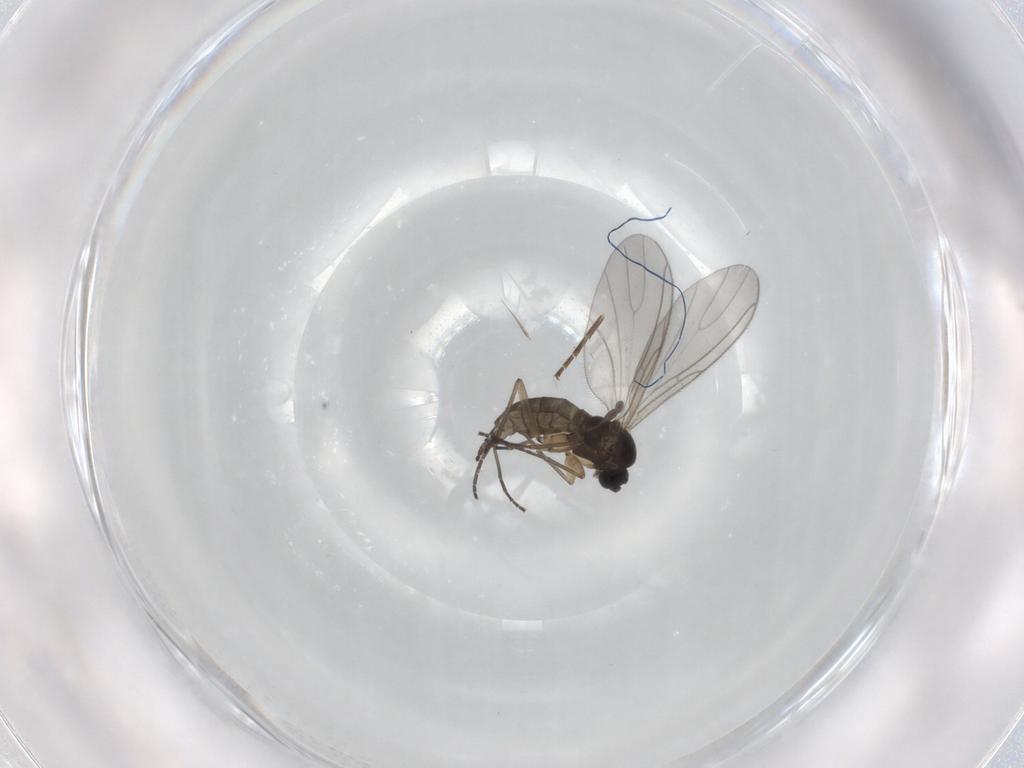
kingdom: Animalia
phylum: Arthropoda
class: Insecta
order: Diptera
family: Sciaridae
